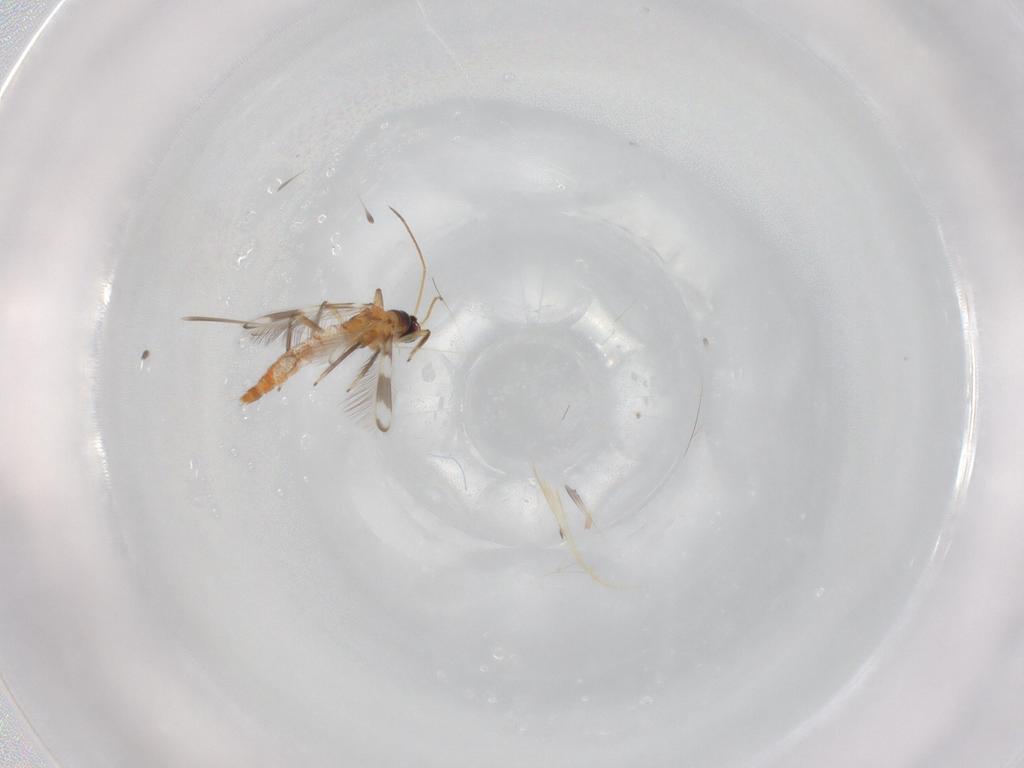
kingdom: Animalia
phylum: Arthropoda
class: Insecta
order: Thysanoptera
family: Aeolothripidae
